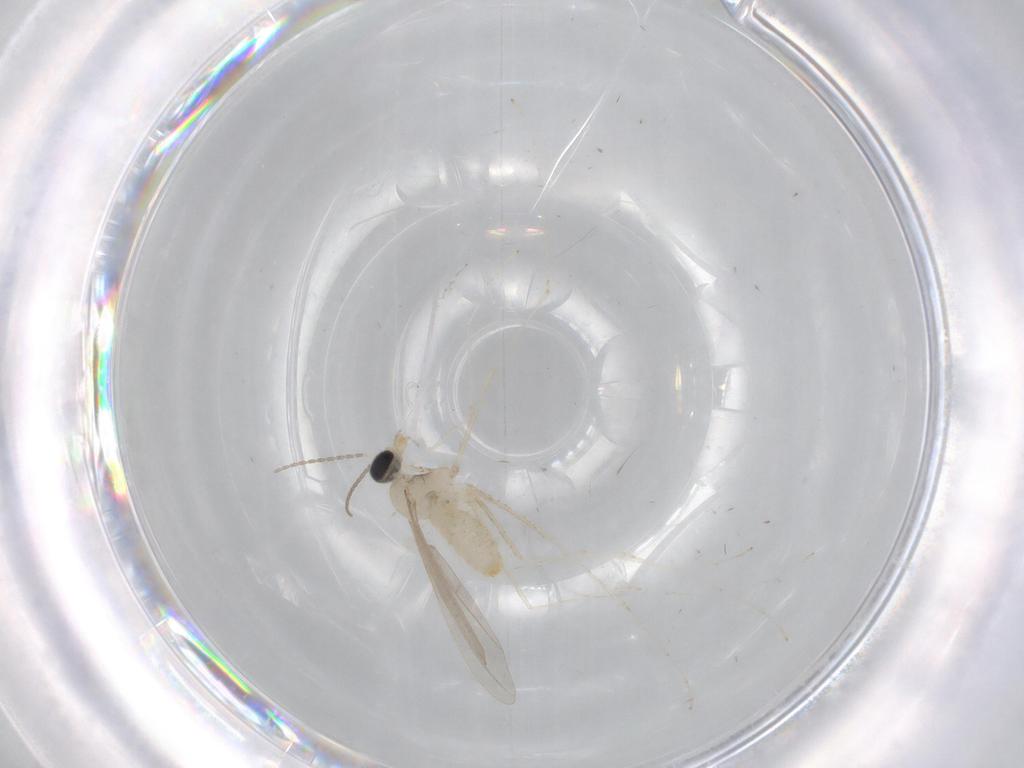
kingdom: Animalia
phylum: Arthropoda
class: Insecta
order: Diptera
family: Cecidomyiidae
